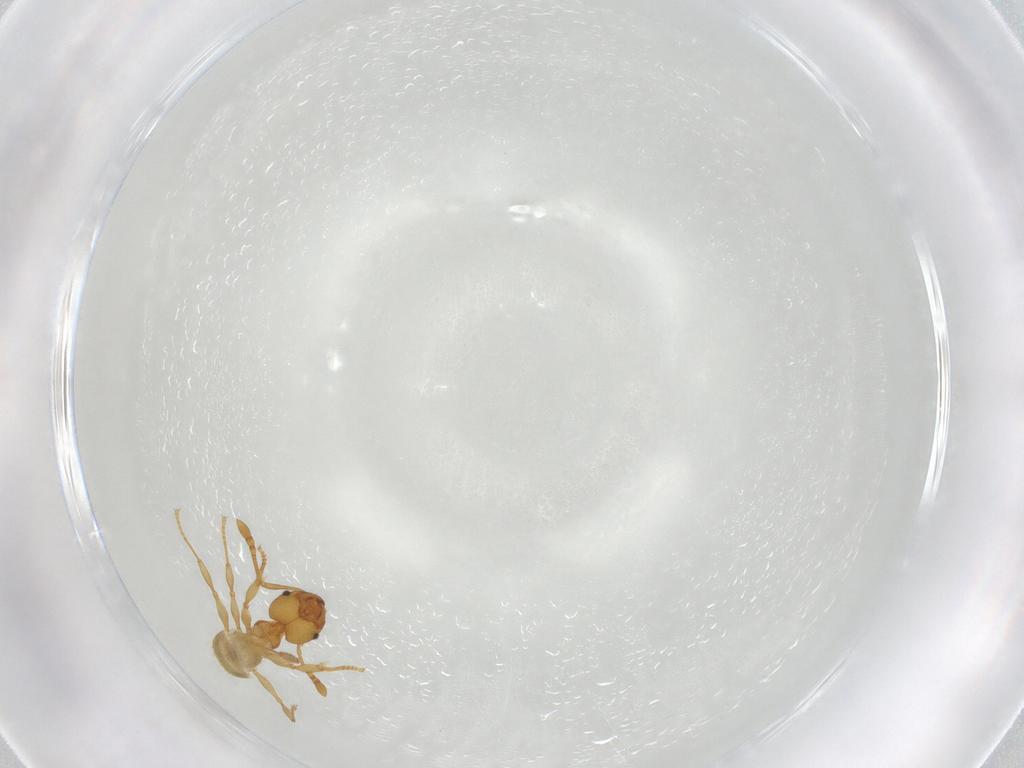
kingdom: Animalia
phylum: Arthropoda
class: Insecta
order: Hymenoptera
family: Formicidae
